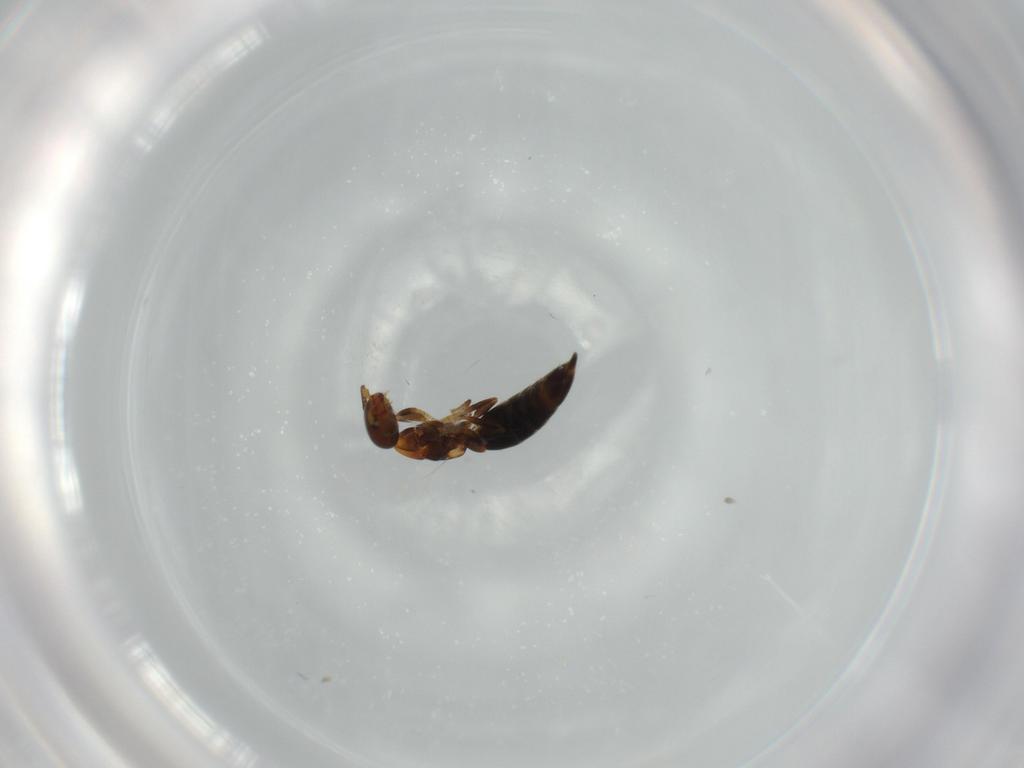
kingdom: Animalia
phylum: Arthropoda
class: Insecta
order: Hymenoptera
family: Bethylidae
